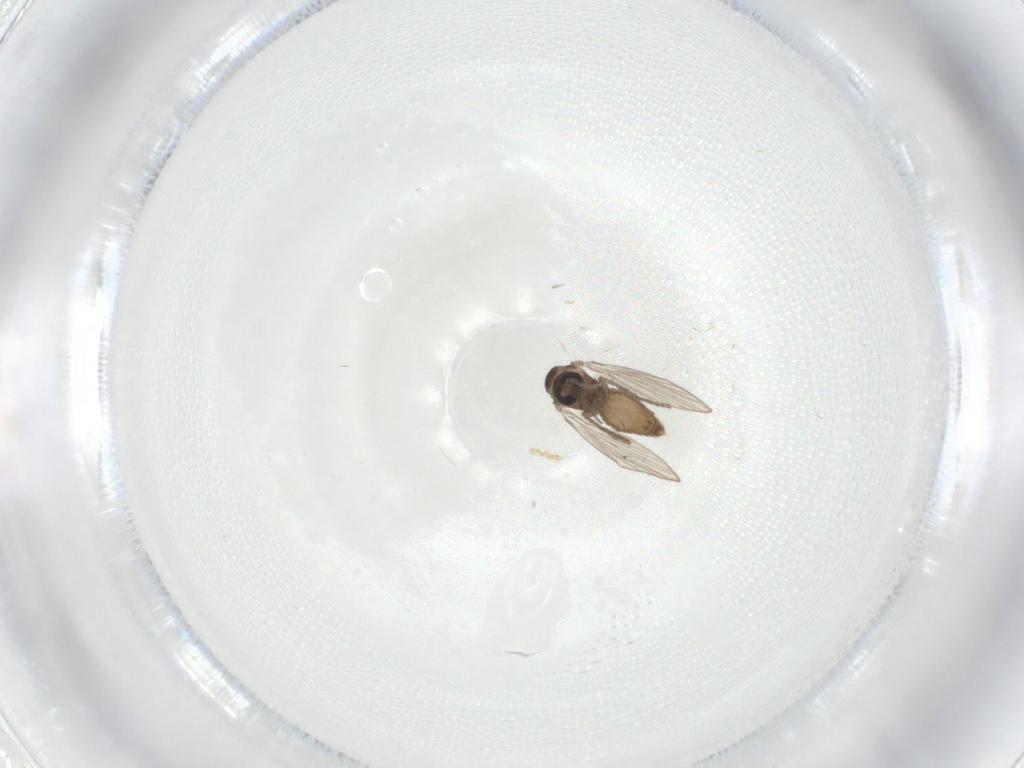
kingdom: Animalia
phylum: Arthropoda
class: Insecta
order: Diptera
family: Psychodidae
